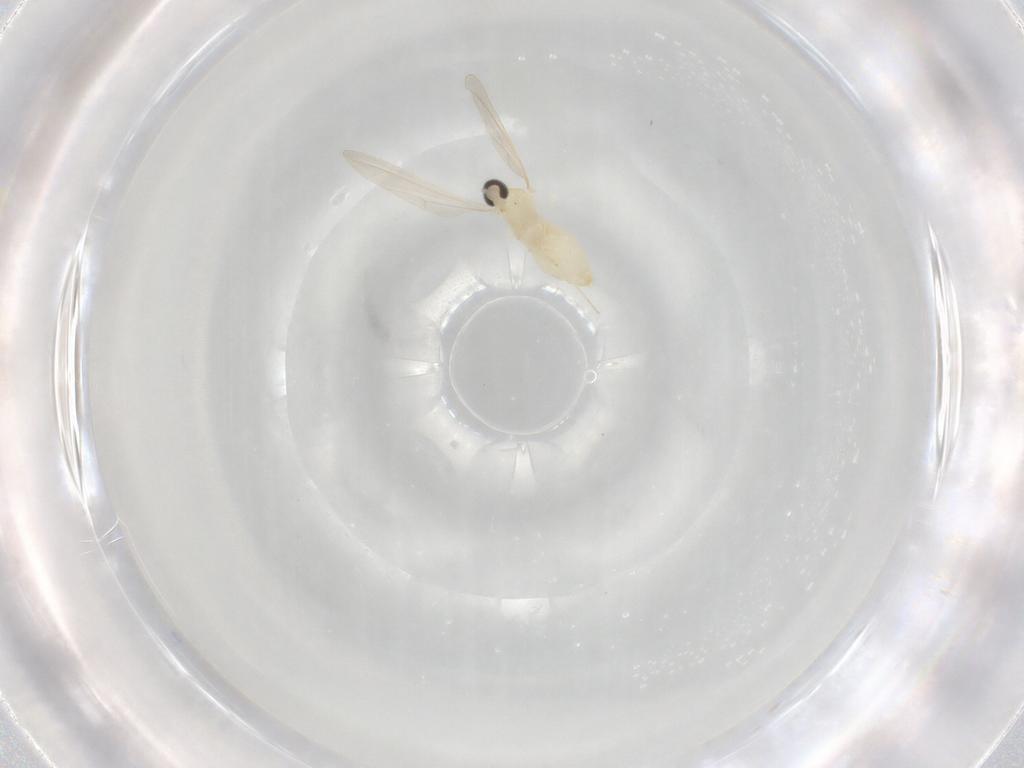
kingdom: Animalia
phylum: Arthropoda
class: Insecta
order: Diptera
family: Cecidomyiidae
